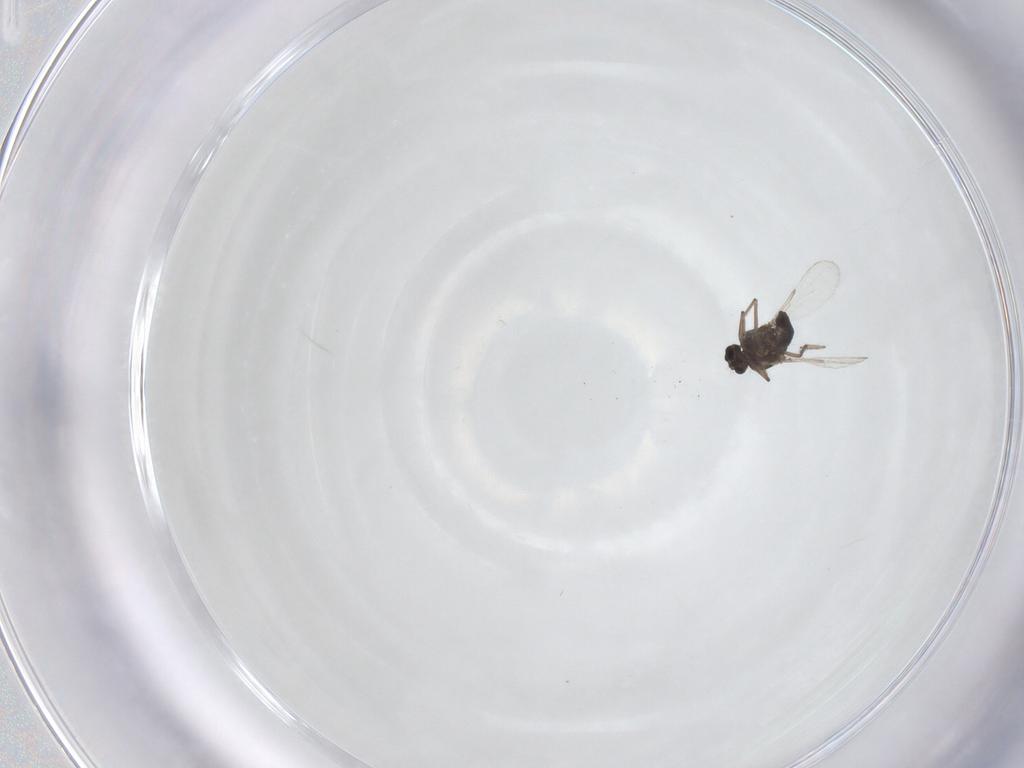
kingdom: Animalia
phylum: Arthropoda
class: Insecta
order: Diptera
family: Ceratopogonidae
